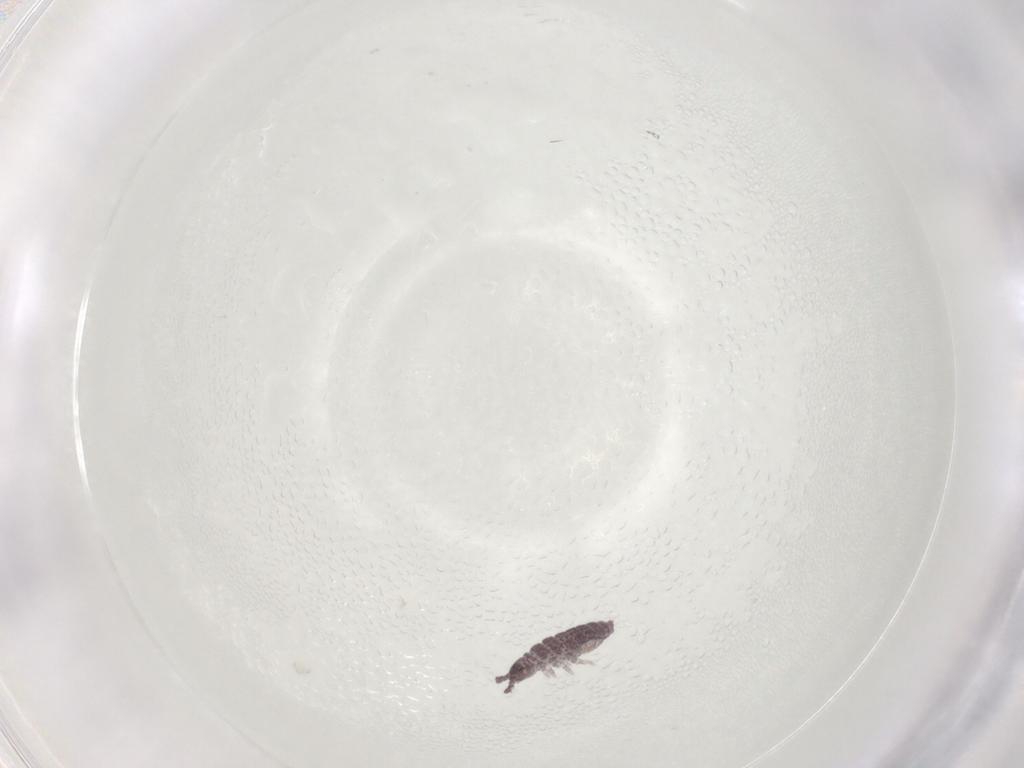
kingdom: Animalia
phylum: Arthropoda
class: Collembola
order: Poduromorpha
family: Hypogastruridae
